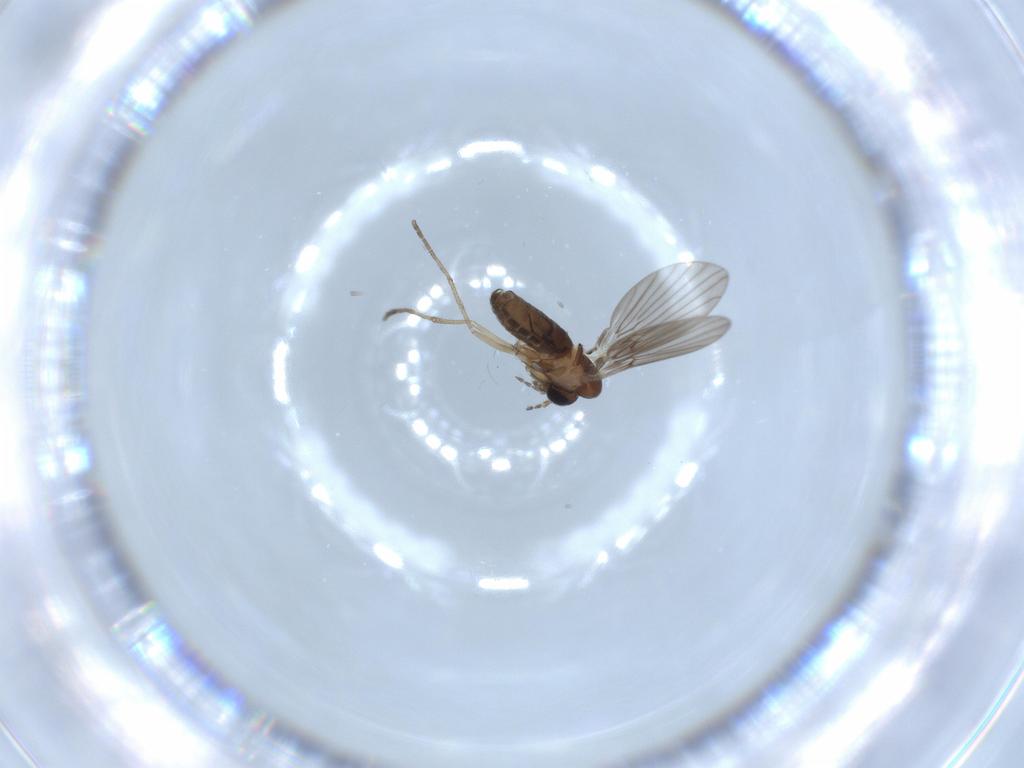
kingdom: Animalia
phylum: Arthropoda
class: Insecta
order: Diptera
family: Psychodidae
